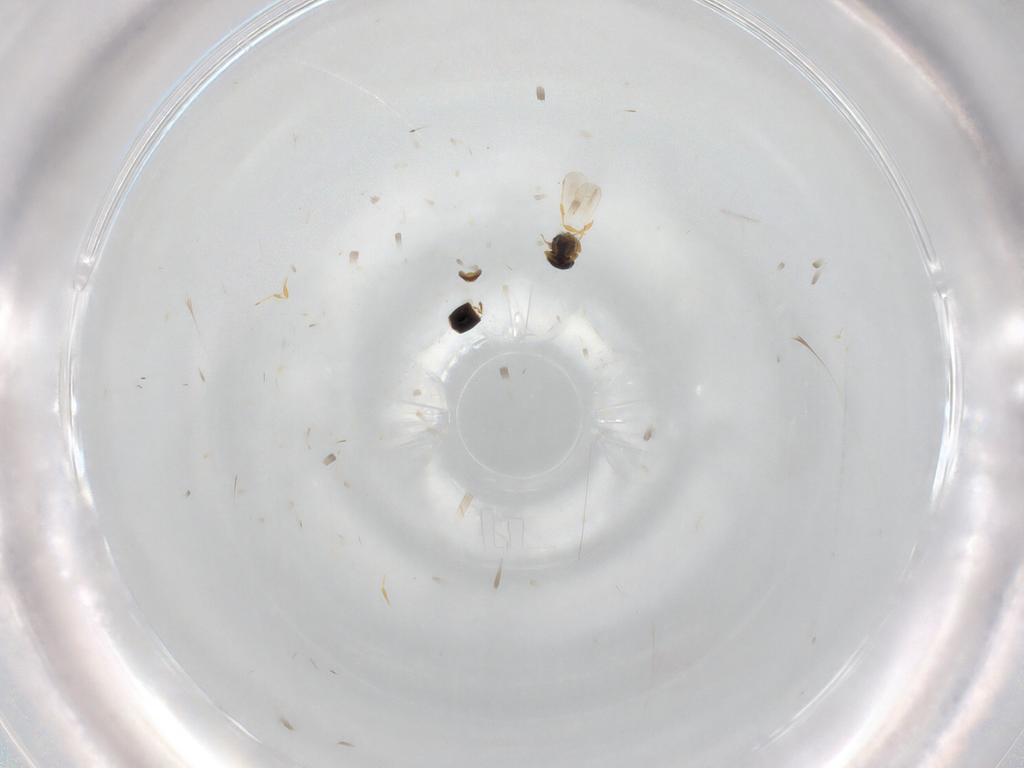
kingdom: Animalia
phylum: Arthropoda
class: Insecta
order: Hymenoptera
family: Platygastridae
